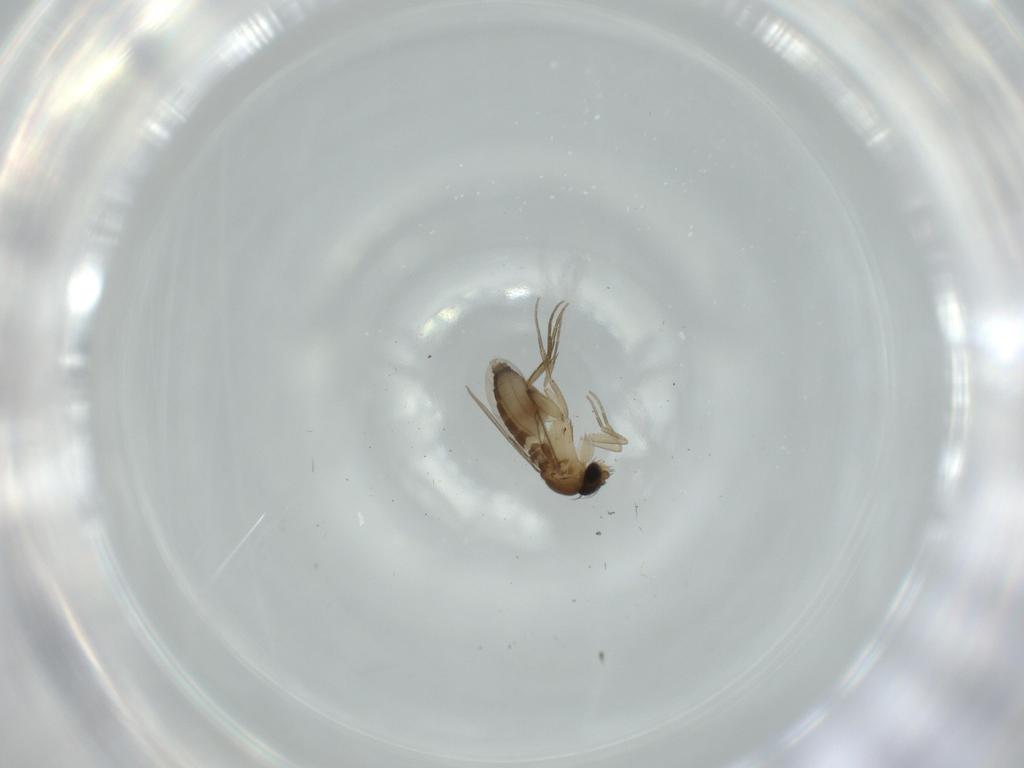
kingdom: Animalia
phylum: Arthropoda
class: Insecta
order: Diptera
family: Phoridae
